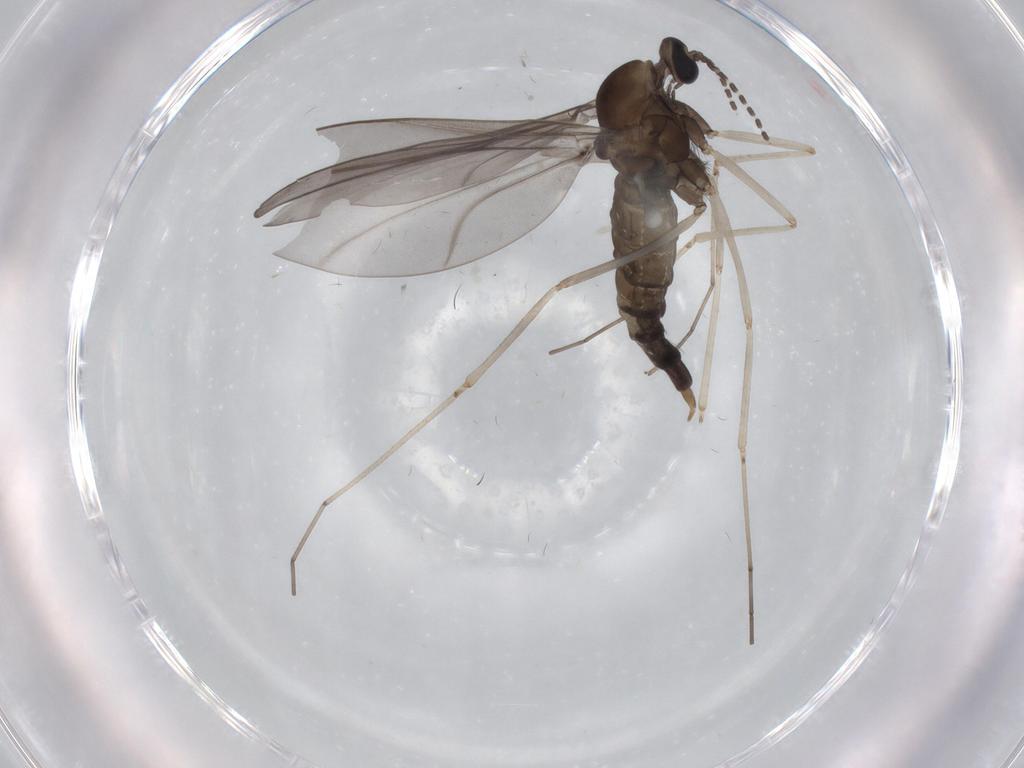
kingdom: Animalia
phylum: Arthropoda
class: Insecta
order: Diptera
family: Cecidomyiidae
